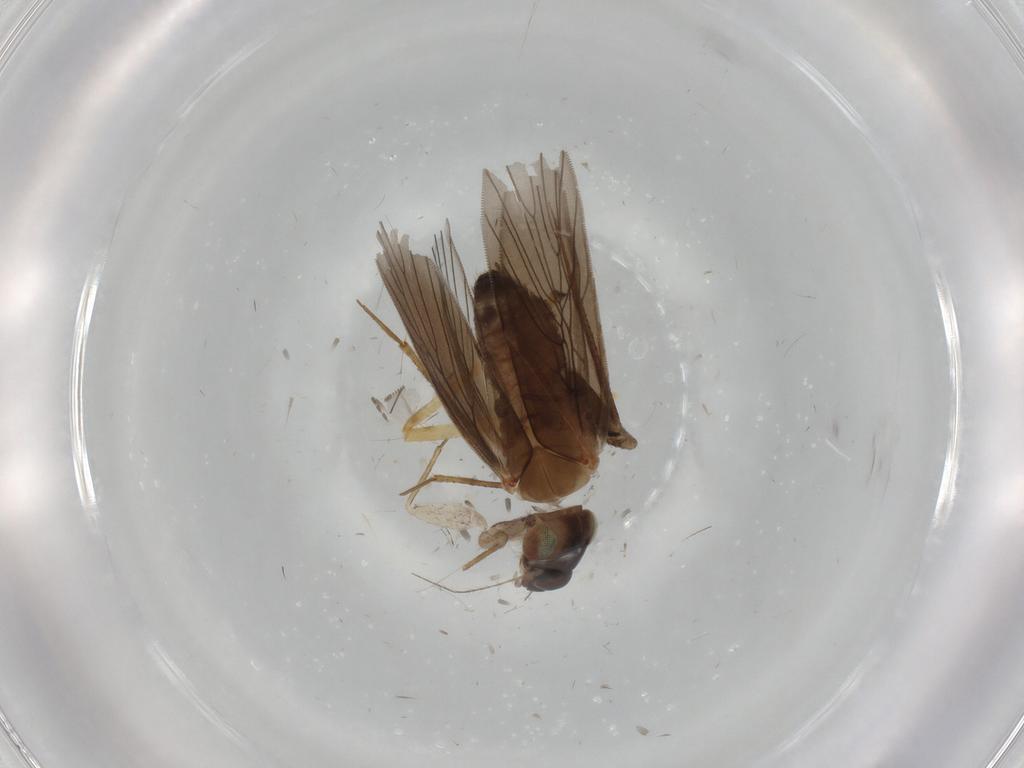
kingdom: Animalia
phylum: Arthropoda
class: Insecta
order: Psocodea
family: Lepidopsocidae
